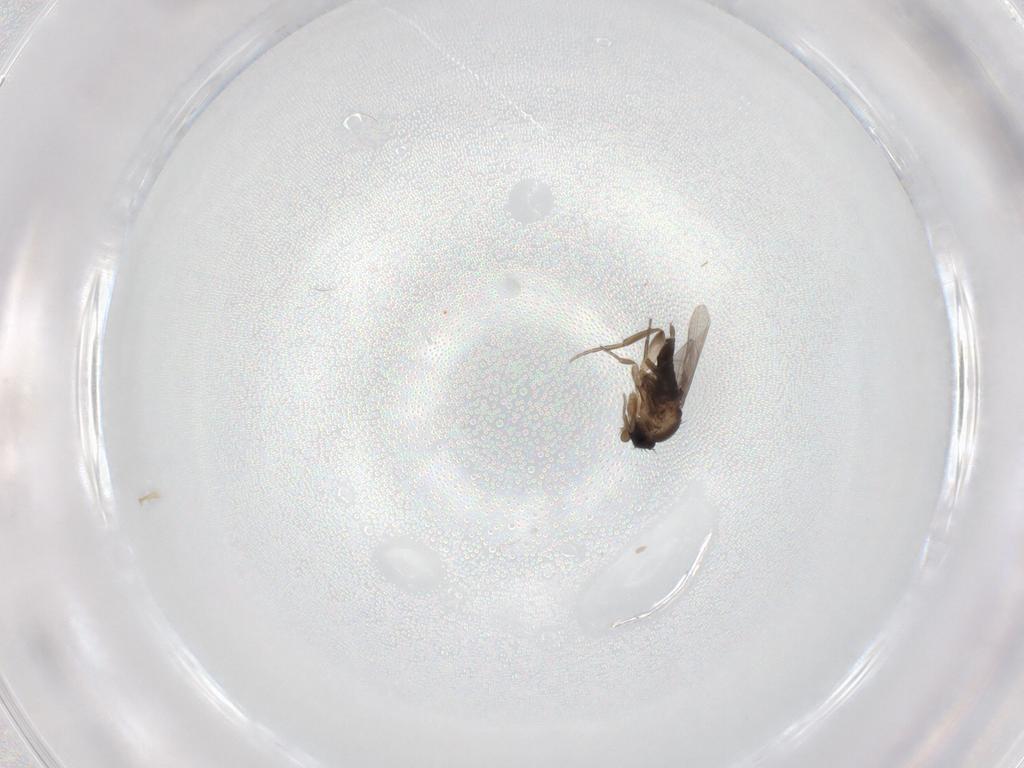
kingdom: Animalia
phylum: Arthropoda
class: Insecta
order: Diptera
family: Phoridae
